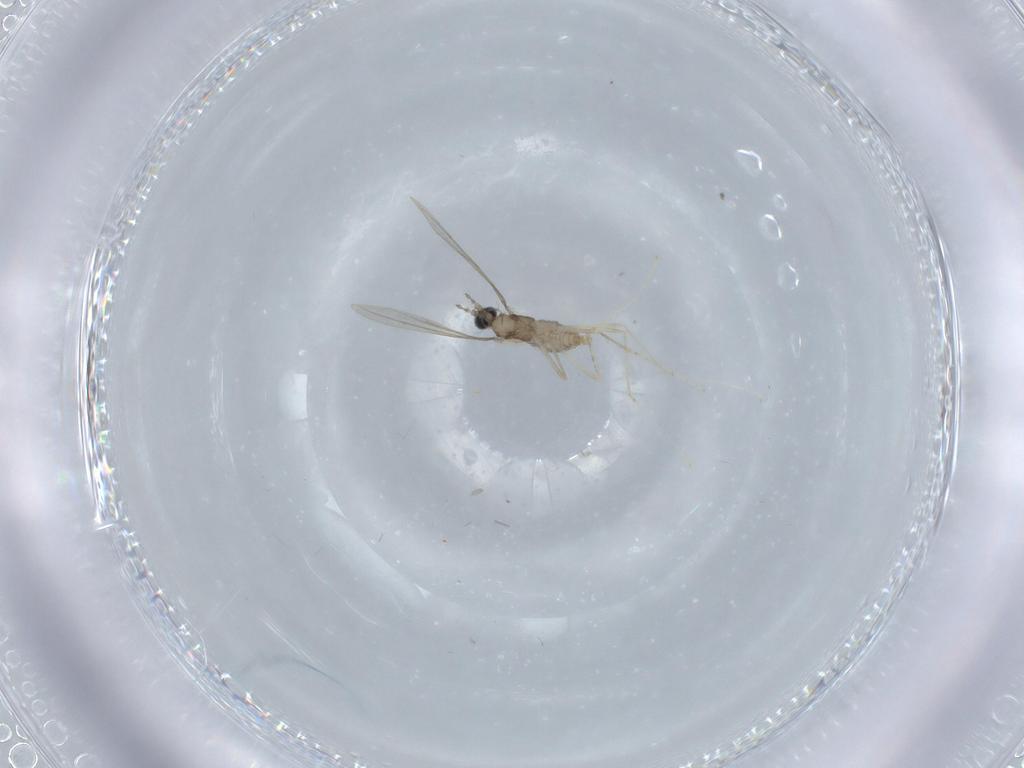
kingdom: Animalia
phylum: Arthropoda
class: Insecta
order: Diptera
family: Cecidomyiidae
